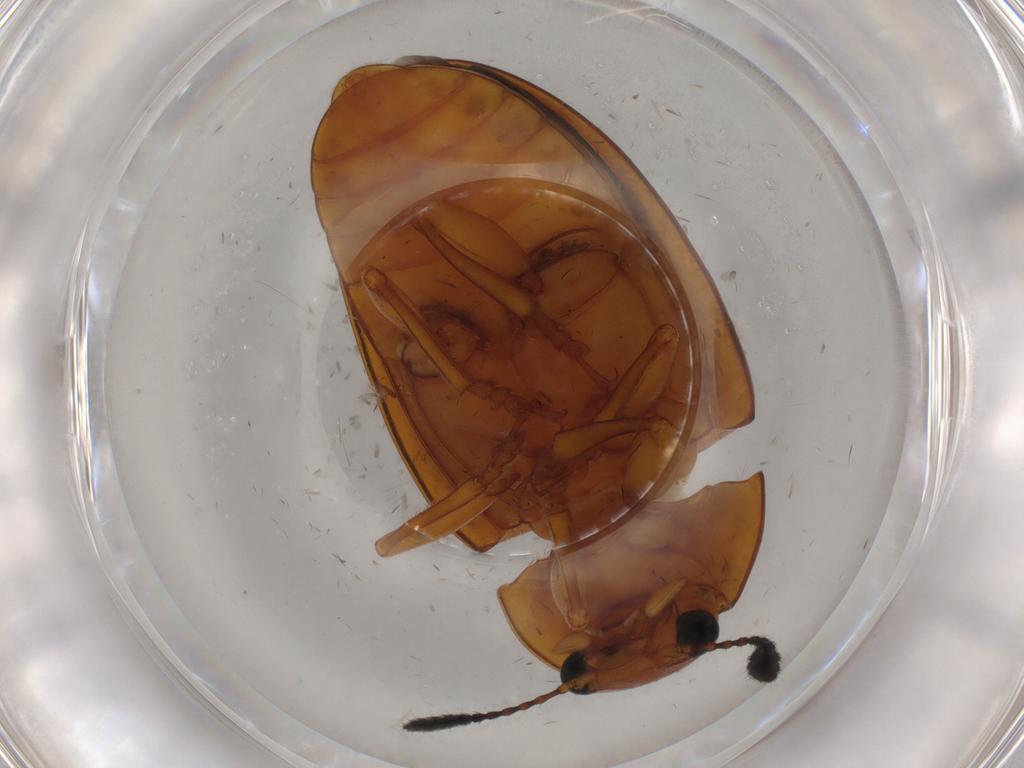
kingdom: Animalia
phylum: Arthropoda
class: Insecta
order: Coleoptera
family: Erotylidae
